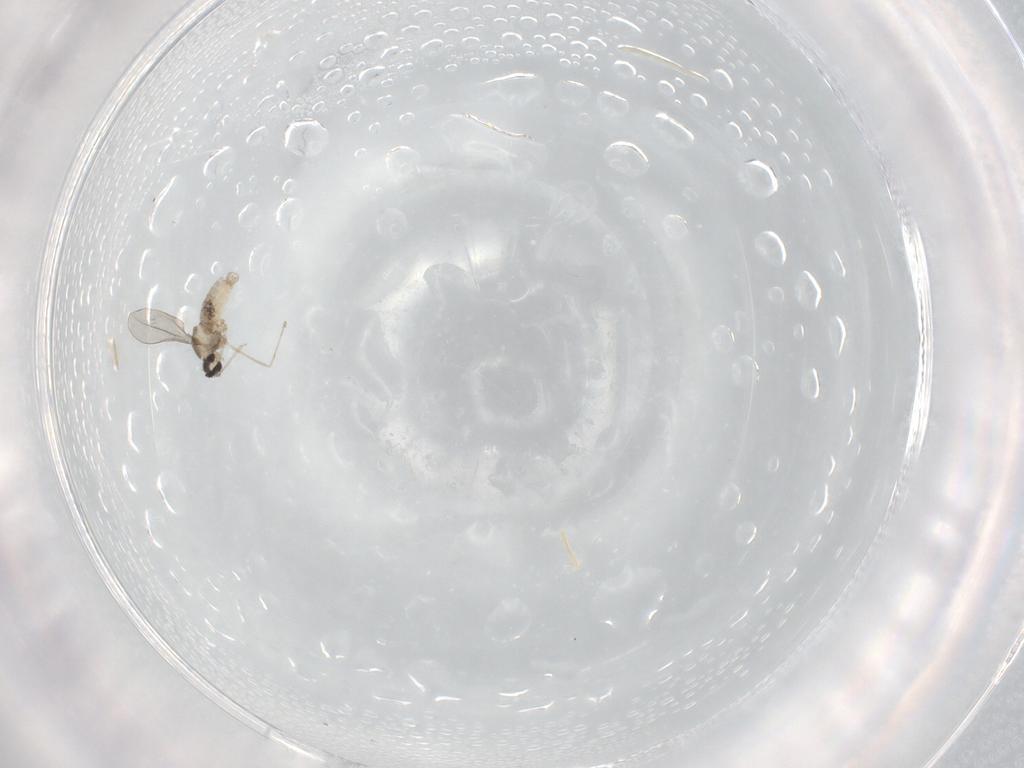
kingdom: Animalia
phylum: Arthropoda
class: Insecta
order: Diptera
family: Cecidomyiidae
